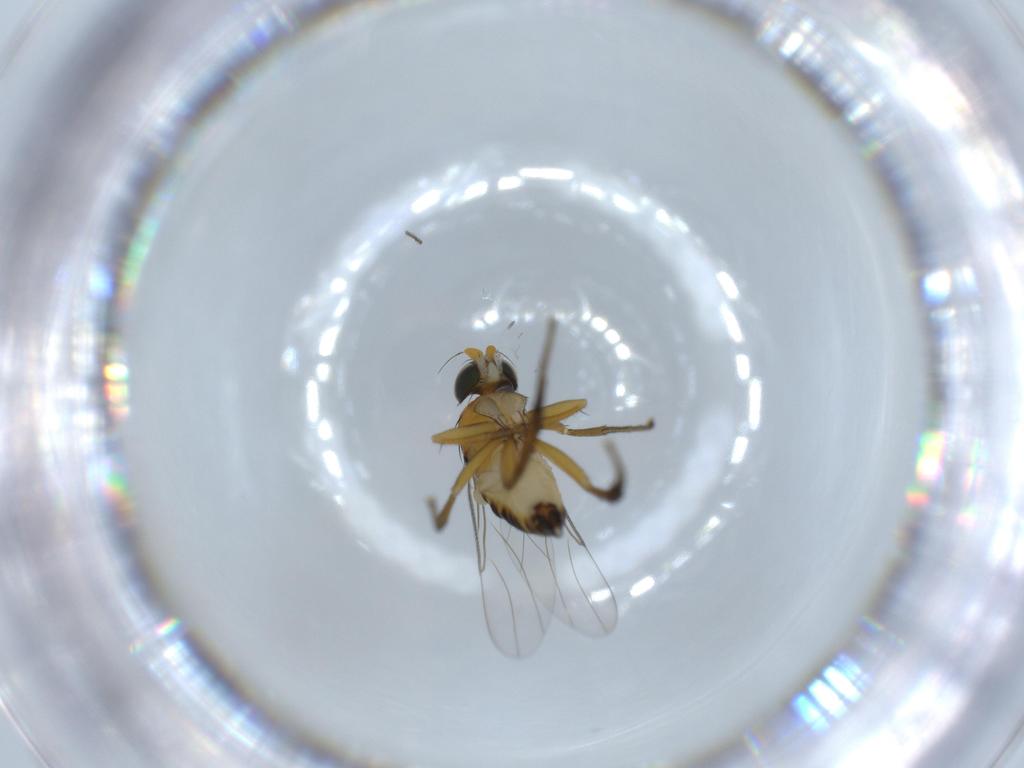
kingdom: Animalia
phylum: Arthropoda
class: Insecta
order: Diptera
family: Phoridae
